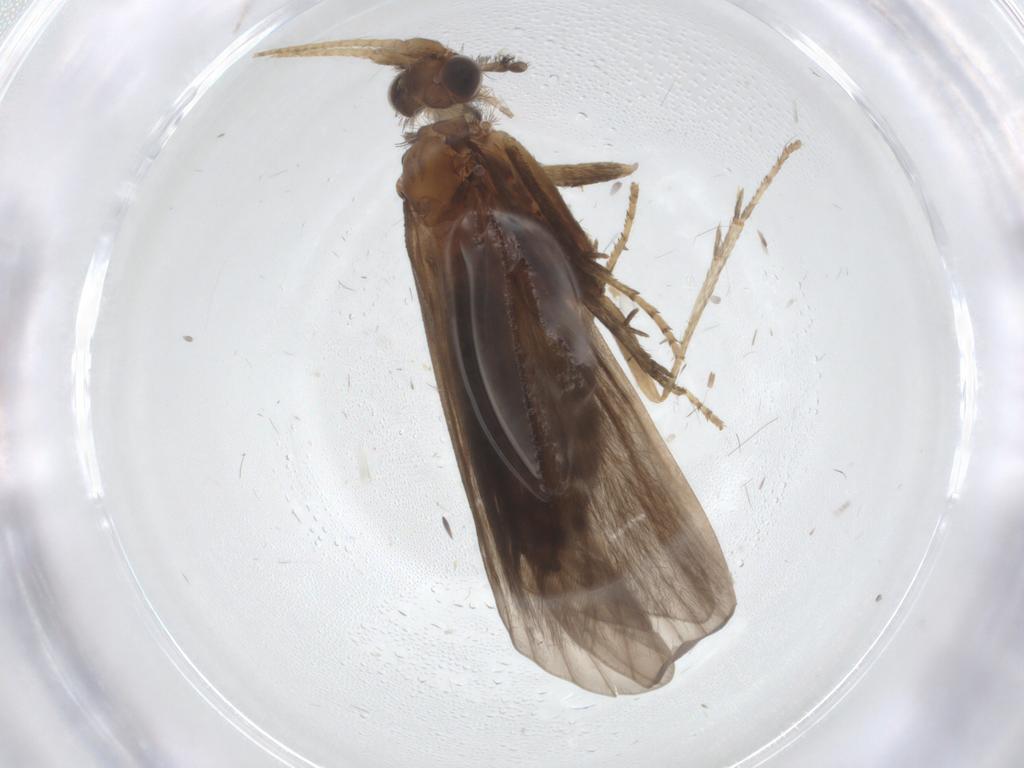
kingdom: Animalia
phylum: Arthropoda
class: Insecta
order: Trichoptera
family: Helicopsychidae
